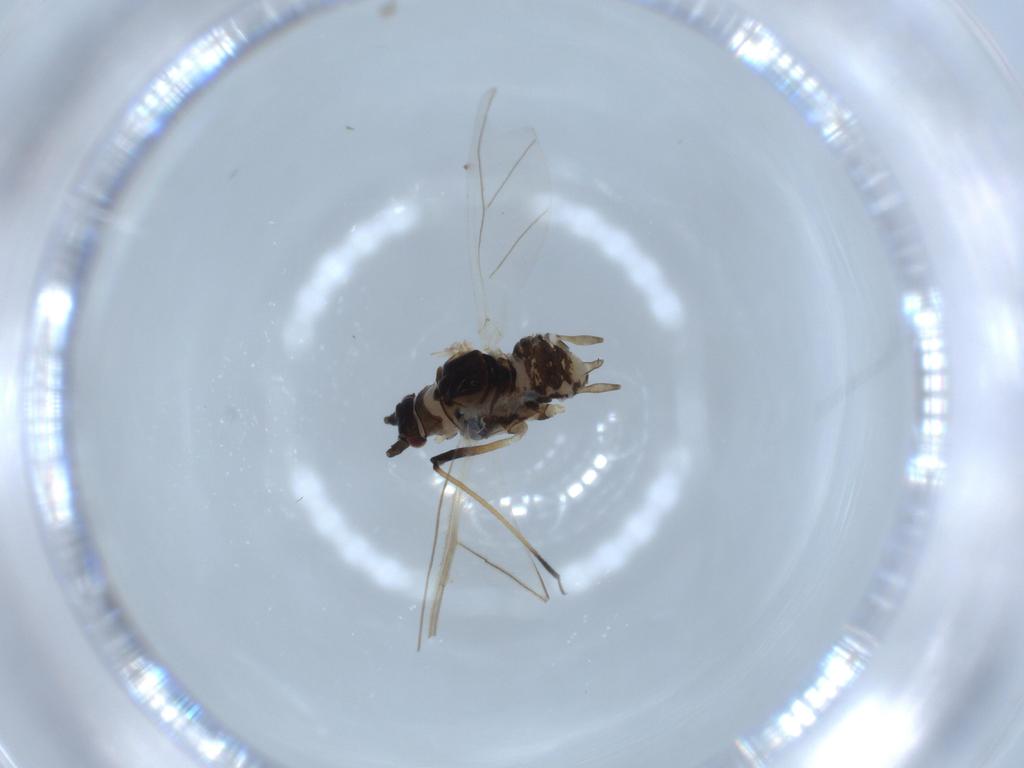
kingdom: Animalia
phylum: Arthropoda
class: Insecta
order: Hemiptera
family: Aphididae
